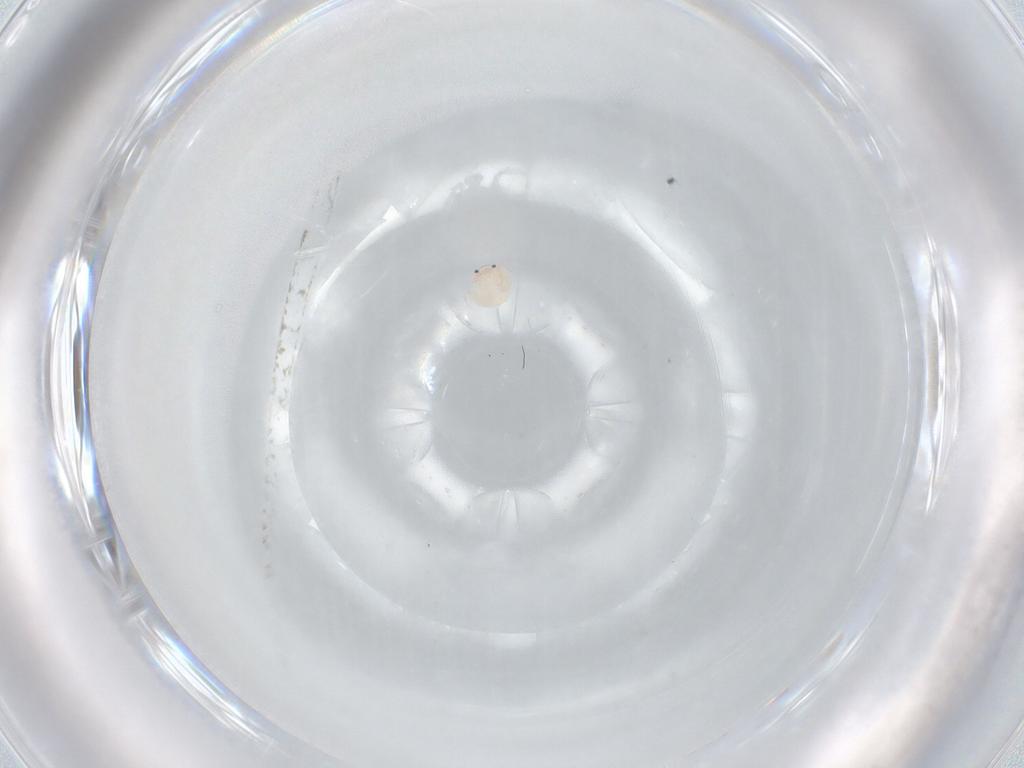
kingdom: Animalia
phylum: Arthropoda
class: Arachnida
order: Trombidiformes
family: Arrenuridae
